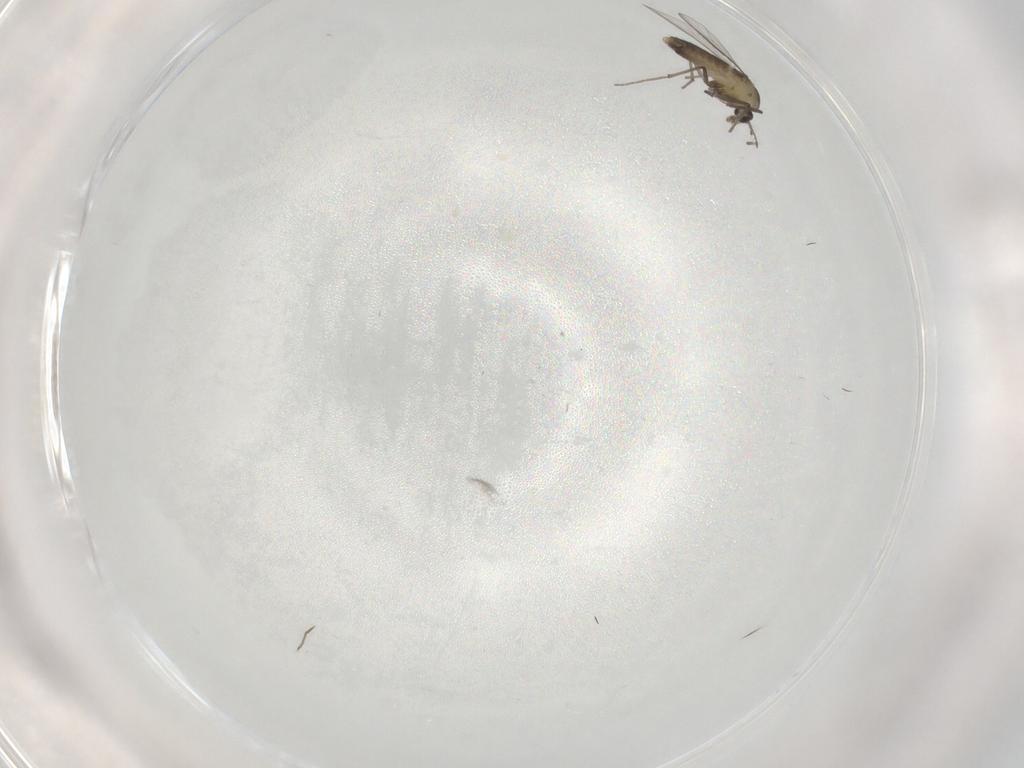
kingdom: Animalia
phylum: Arthropoda
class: Insecta
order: Diptera
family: Chironomidae
